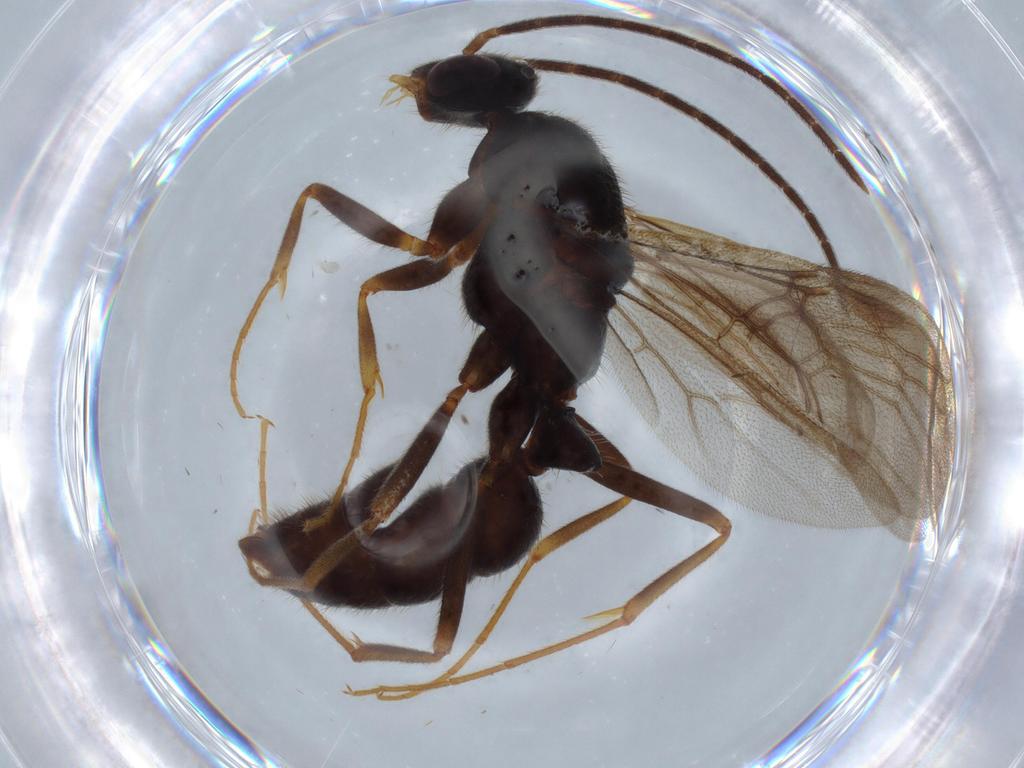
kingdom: Animalia
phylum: Arthropoda
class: Insecta
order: Hymenoptera
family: Formicidae
